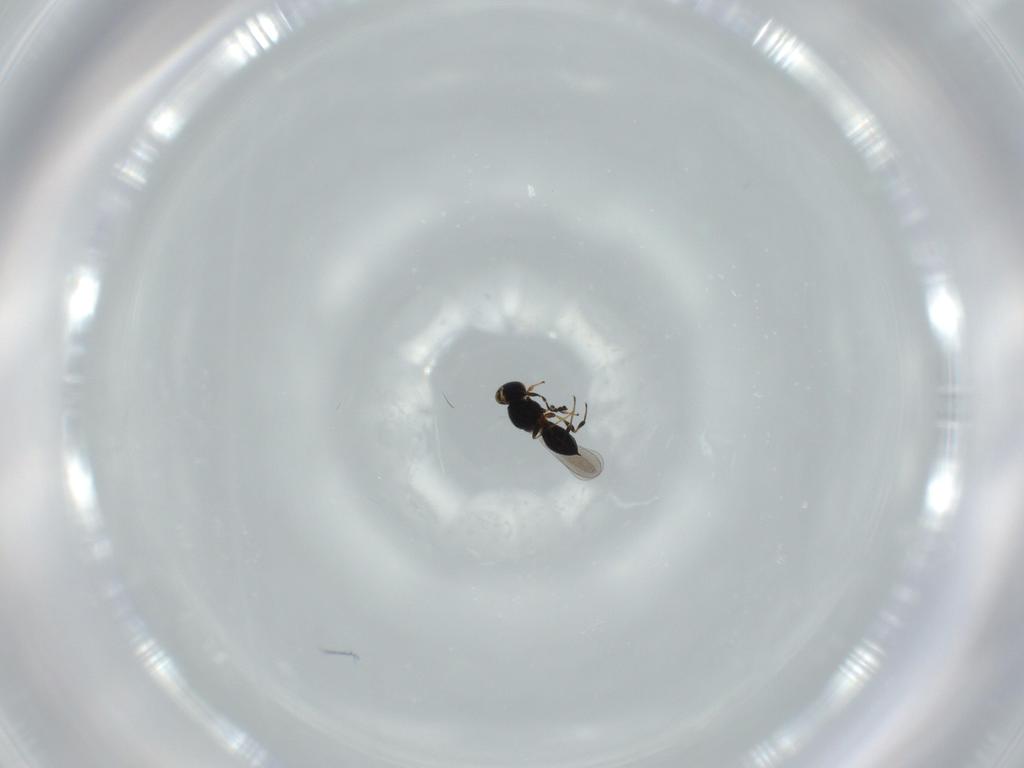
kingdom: Animalia
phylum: Arthropoda
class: Insecta
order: Hymenoptera
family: Platygastridae
